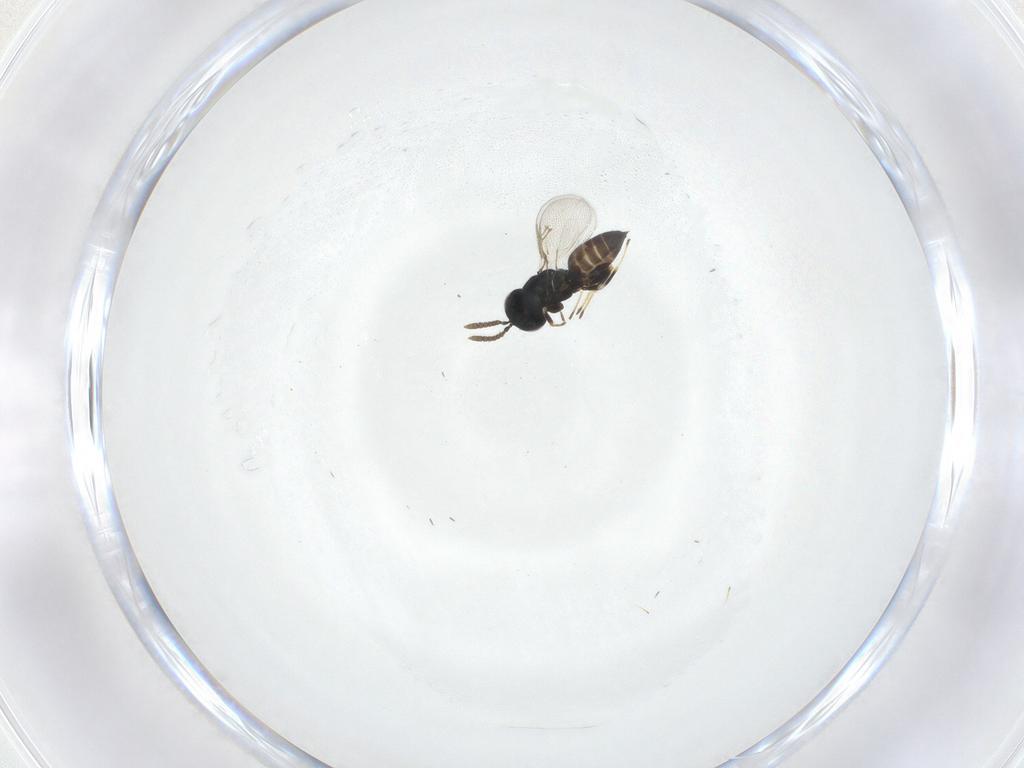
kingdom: Animalia
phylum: Arthropoda
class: Insecta
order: Hymenoptera
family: Pteromalidae
